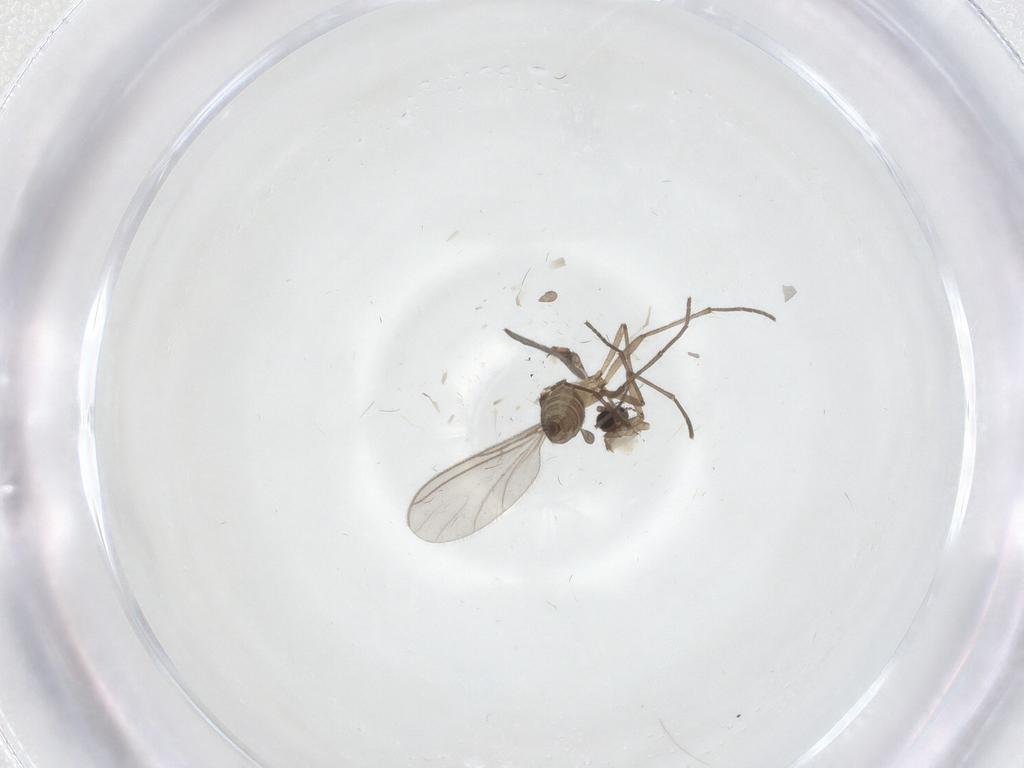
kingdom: Animalia
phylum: Arthropoda
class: Insecta
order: Diptera
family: Sciaridae
